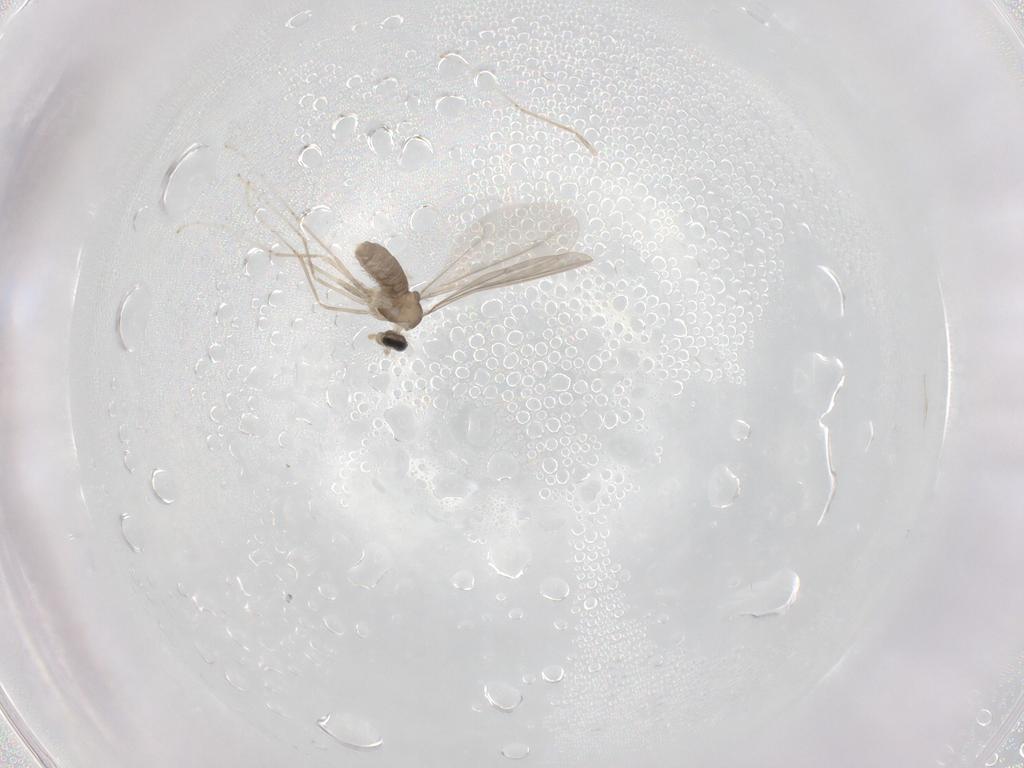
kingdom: Animalia
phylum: Arthropoda
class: Insecta
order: Diptera
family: Cecidomyiidae
